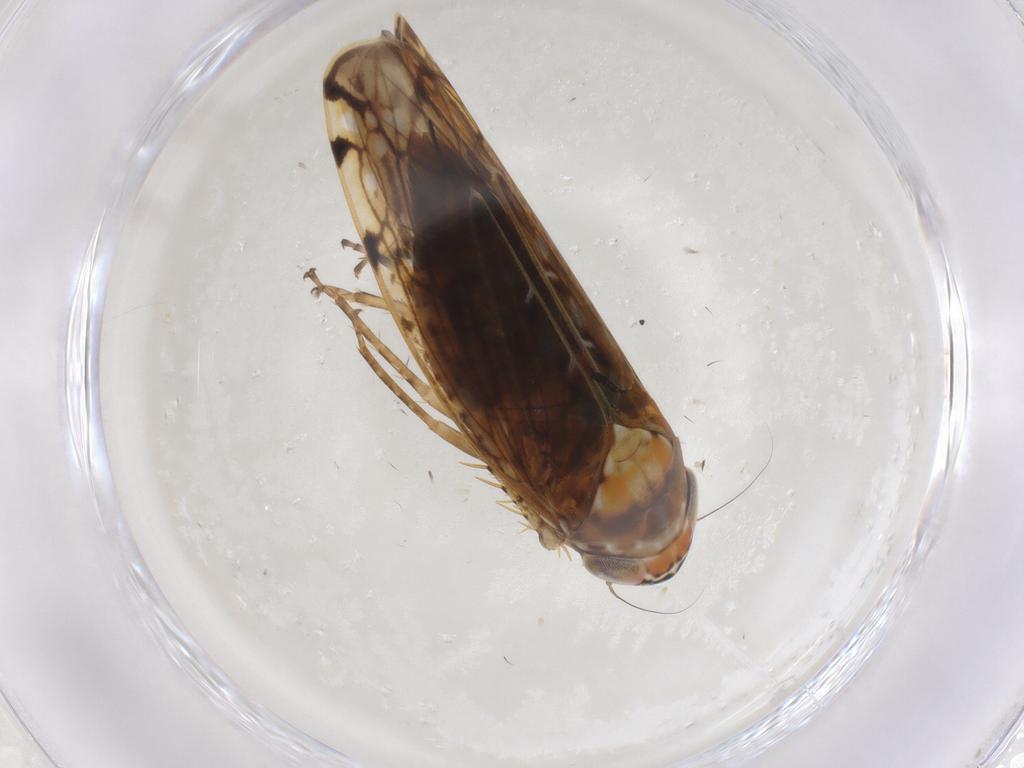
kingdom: Animalia
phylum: Arthropoda
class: Insecta
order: Hemiptera
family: Cicadellidae
